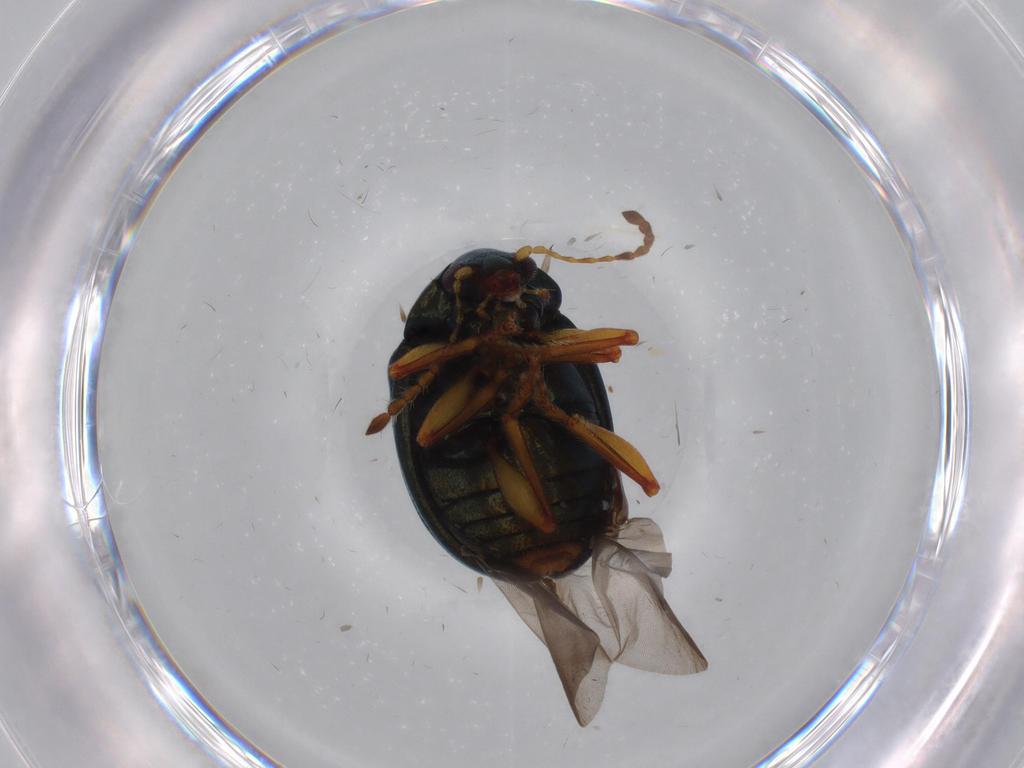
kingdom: Animalia
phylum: Arthropoda
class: Insecta
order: Coleoptera
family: Chrysomelidae
